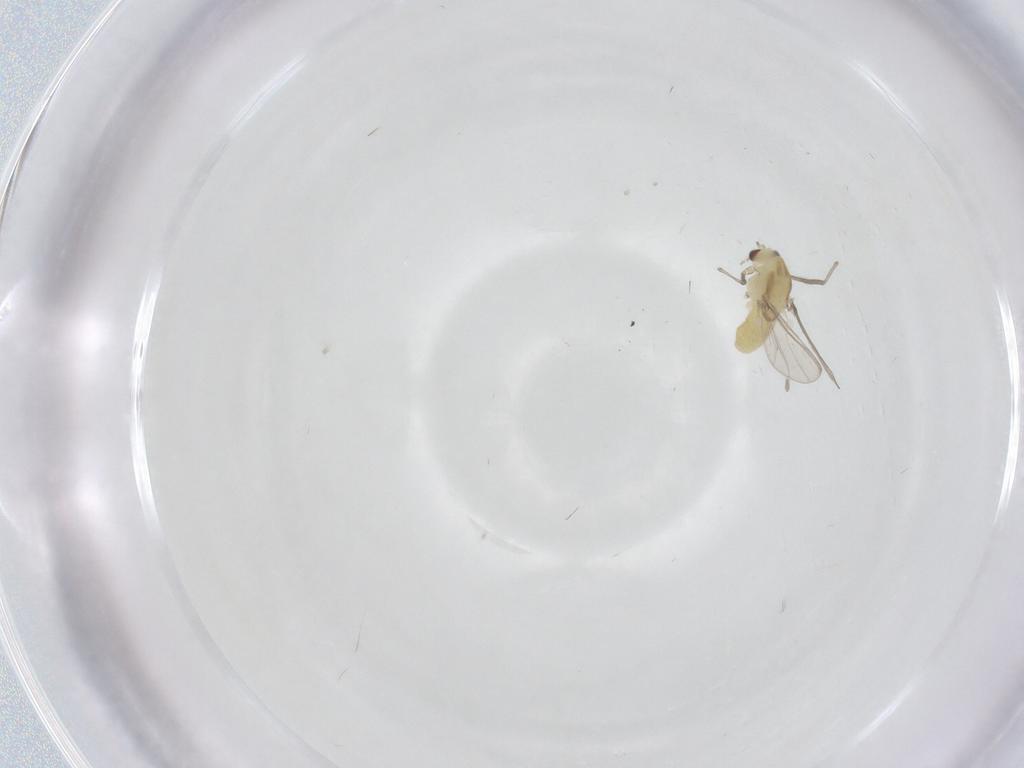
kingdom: Animalia
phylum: Arthropoda
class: Insecta
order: Diptera
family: Chironomidae
